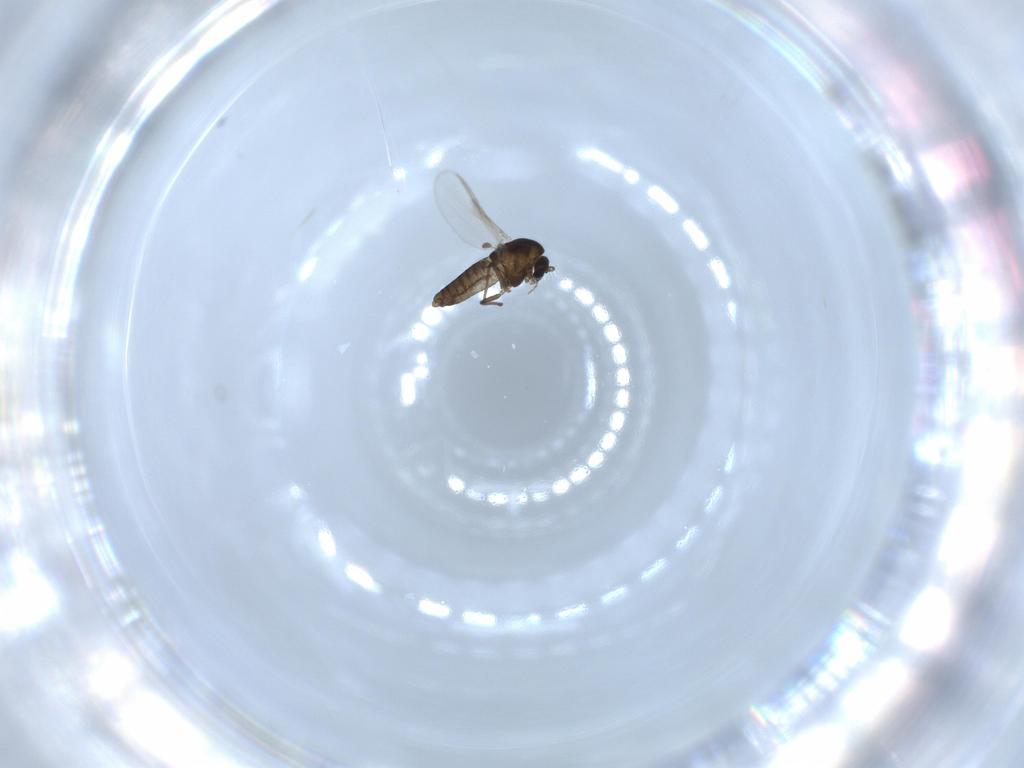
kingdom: Animalia
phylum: Arthropoda
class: Insecta
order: Diptera
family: Chironomidae
